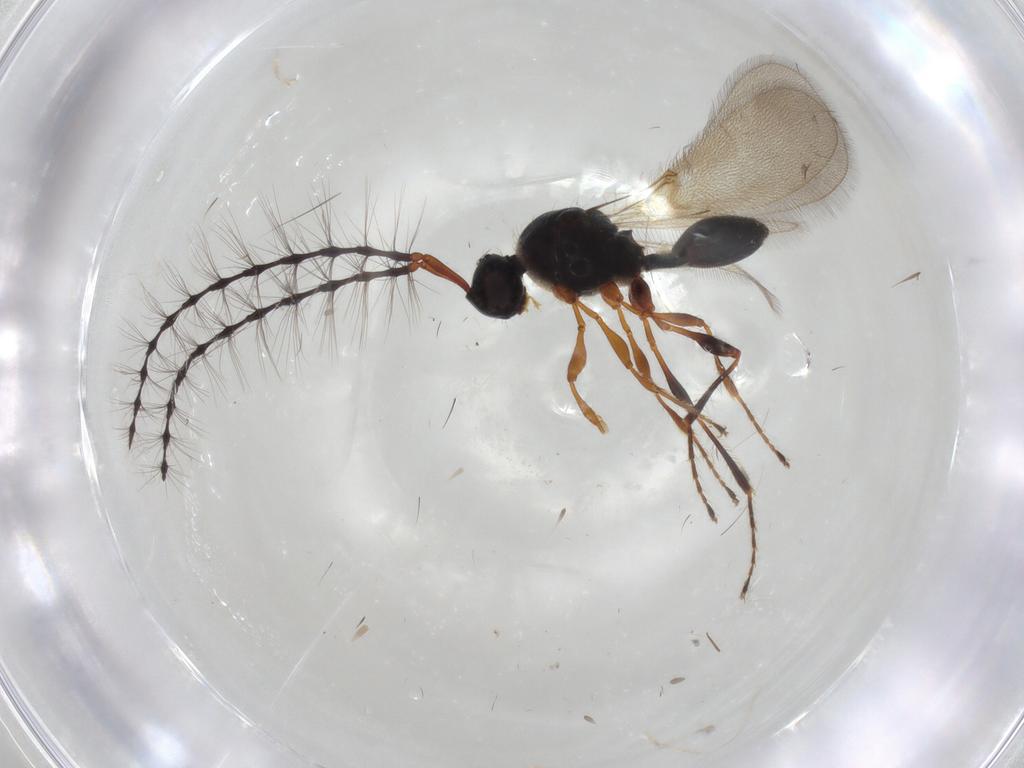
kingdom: Animalia
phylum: Arthropoda
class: Insecta
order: Hymenoptera
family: Diapriidae
